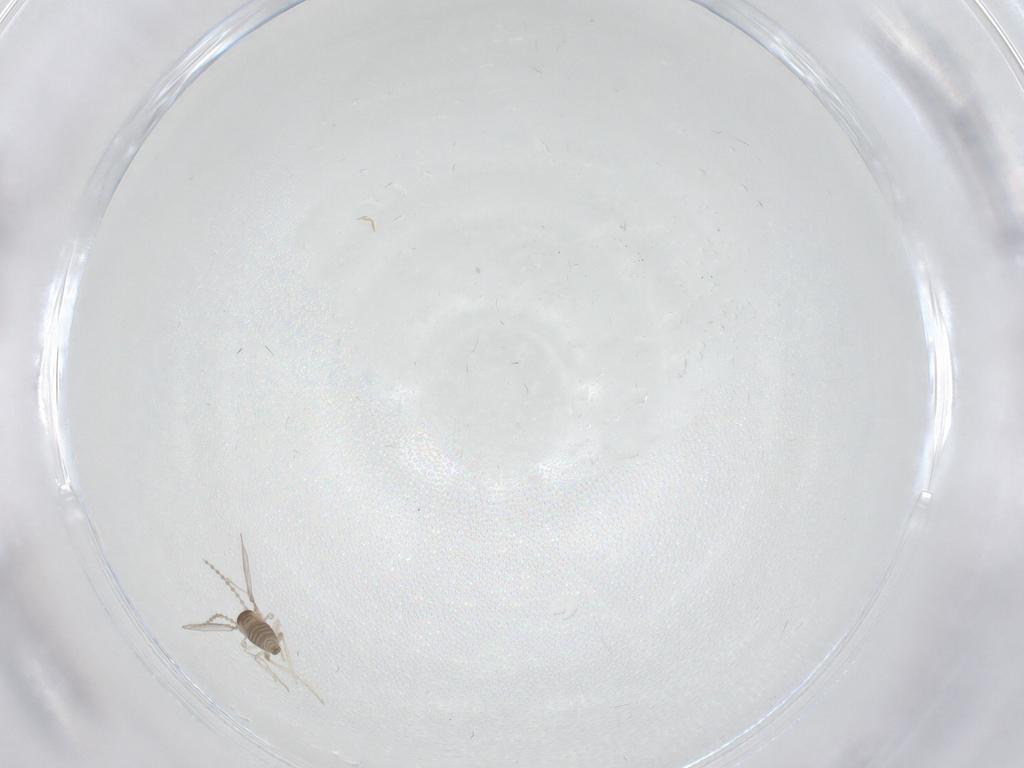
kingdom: Animalia
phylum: Arthropoda
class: Insecta
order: Diptera
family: Cecidomyiidae
